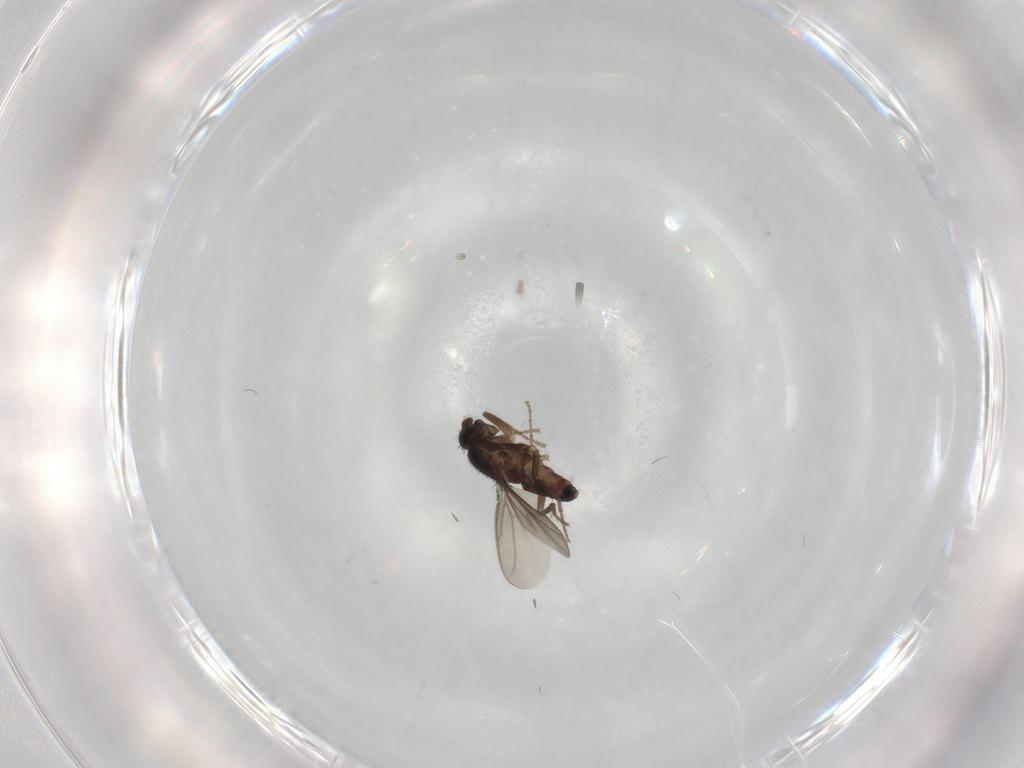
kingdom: Animalia
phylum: Arthropoda
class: Insecta
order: Diptera
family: Sphaeroceridae
